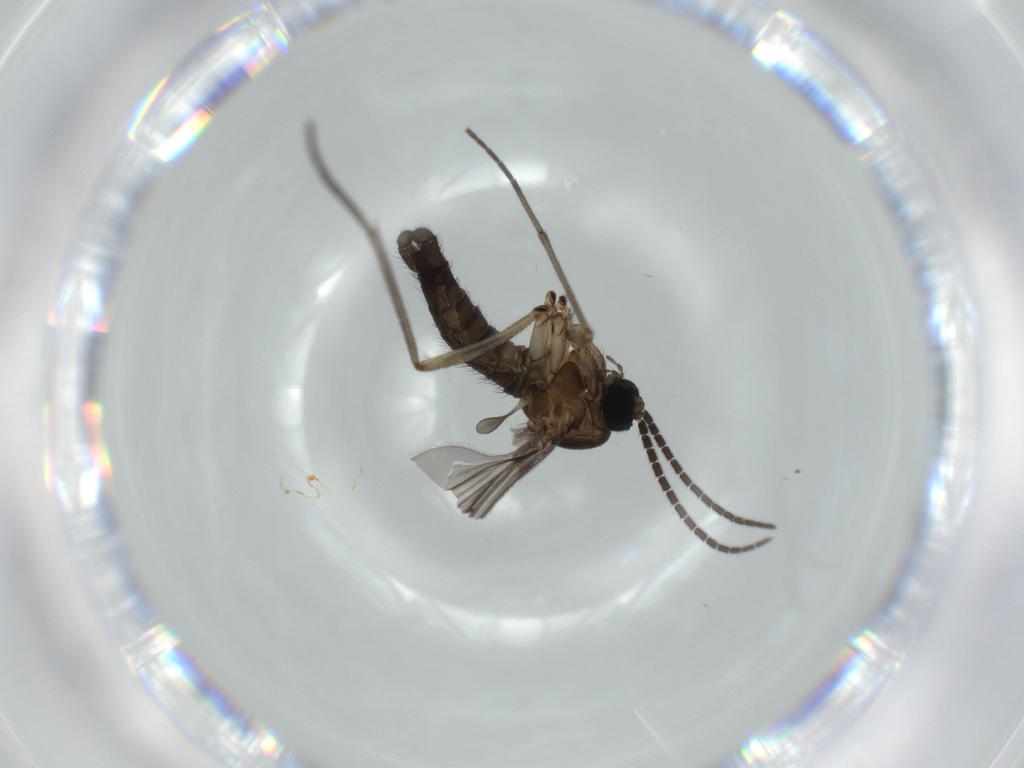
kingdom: Animalia
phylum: Arthropoda
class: Insecta
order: Diptera
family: Sciaridae
